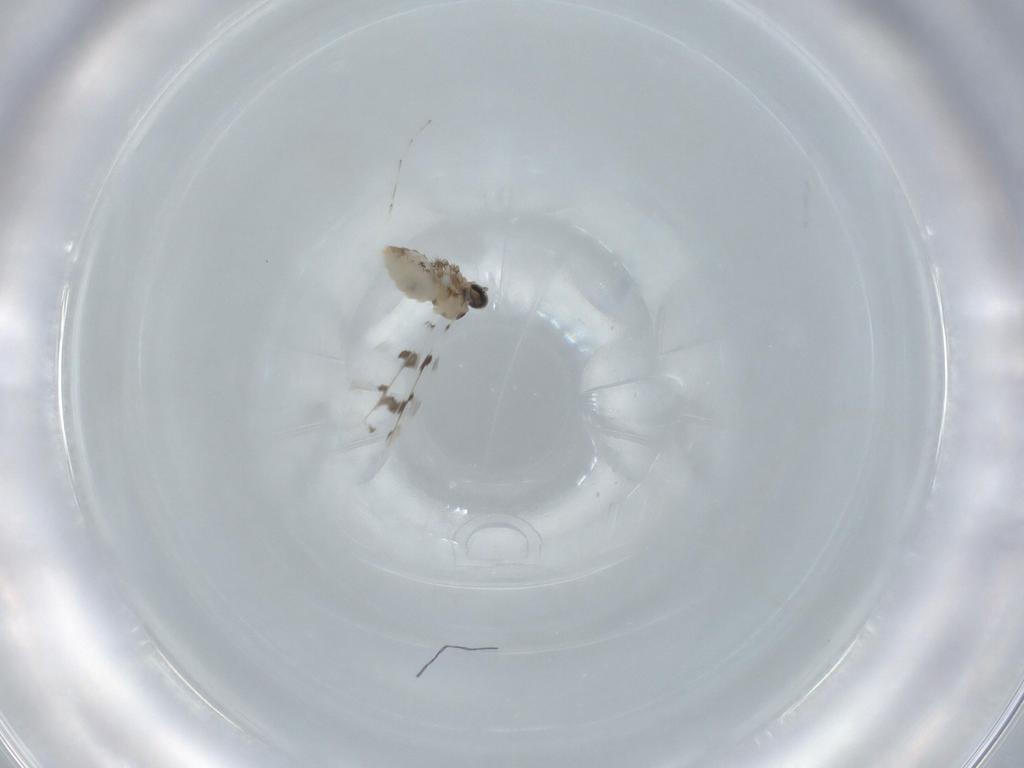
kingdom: Animalia
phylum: Arthropoda
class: Insecta
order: Diptera
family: Cecidomyiidae
